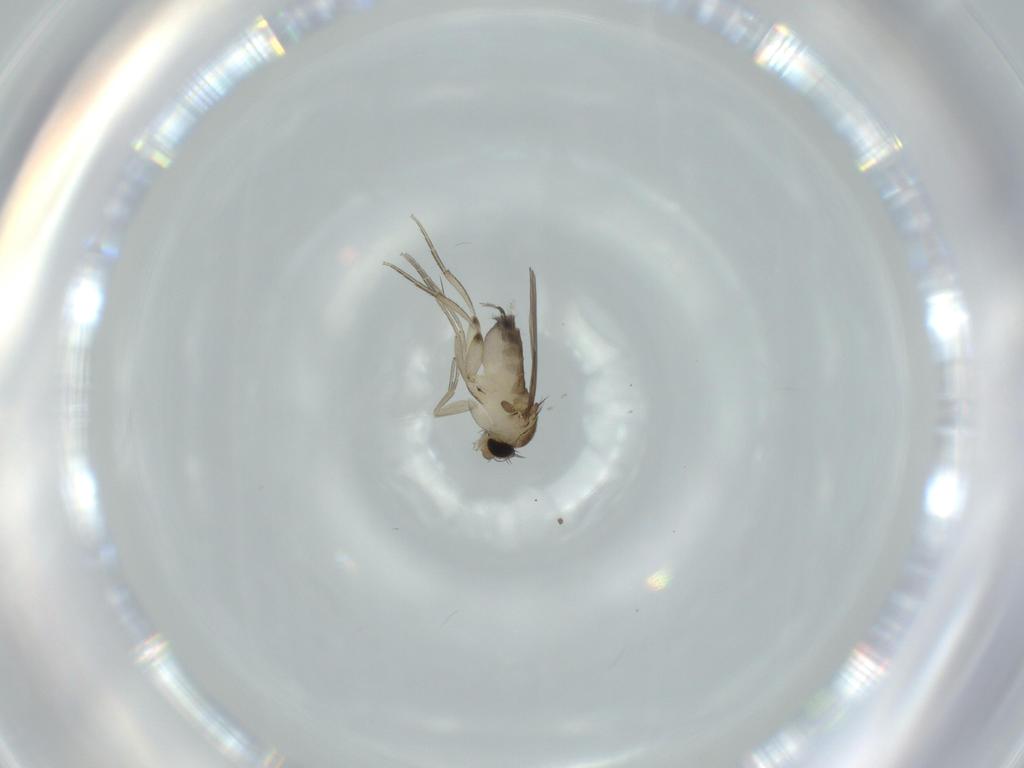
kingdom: Animalia
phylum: Arthropoda
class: Insecta
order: Diptera
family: Phoridae
